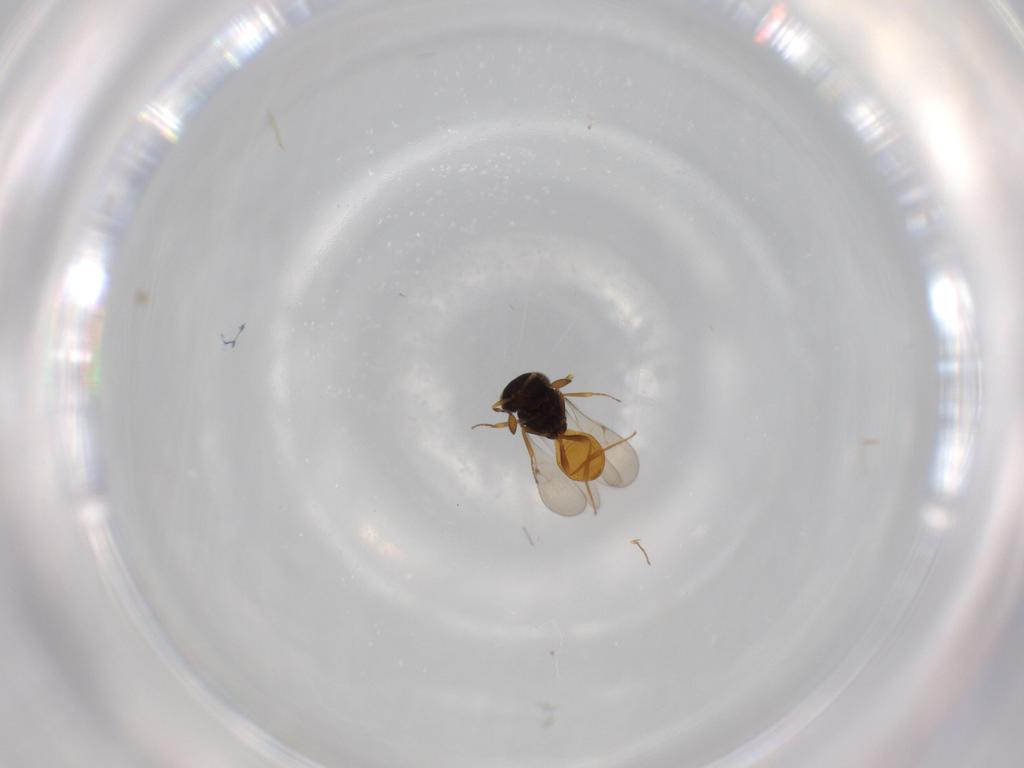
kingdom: Animalia
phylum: Arthropoda
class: Insecta
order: Hymenoptera
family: Scelionidae
